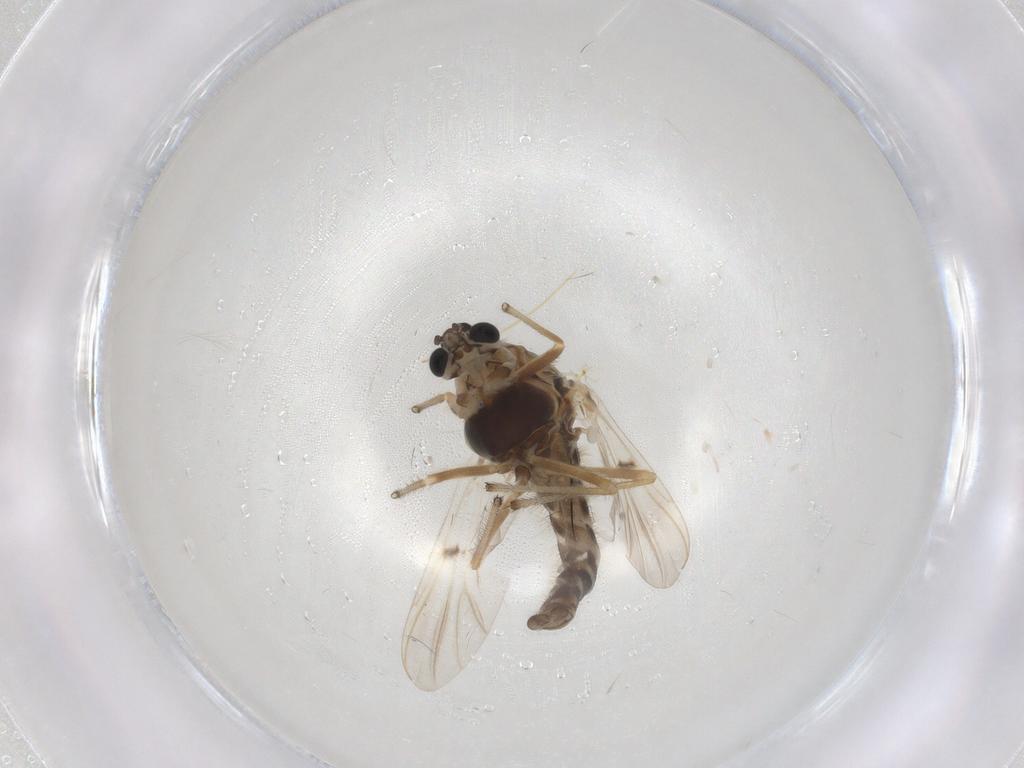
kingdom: Animalia
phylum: Arthropoda
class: Insecta
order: Diptera
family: Chironomidae
